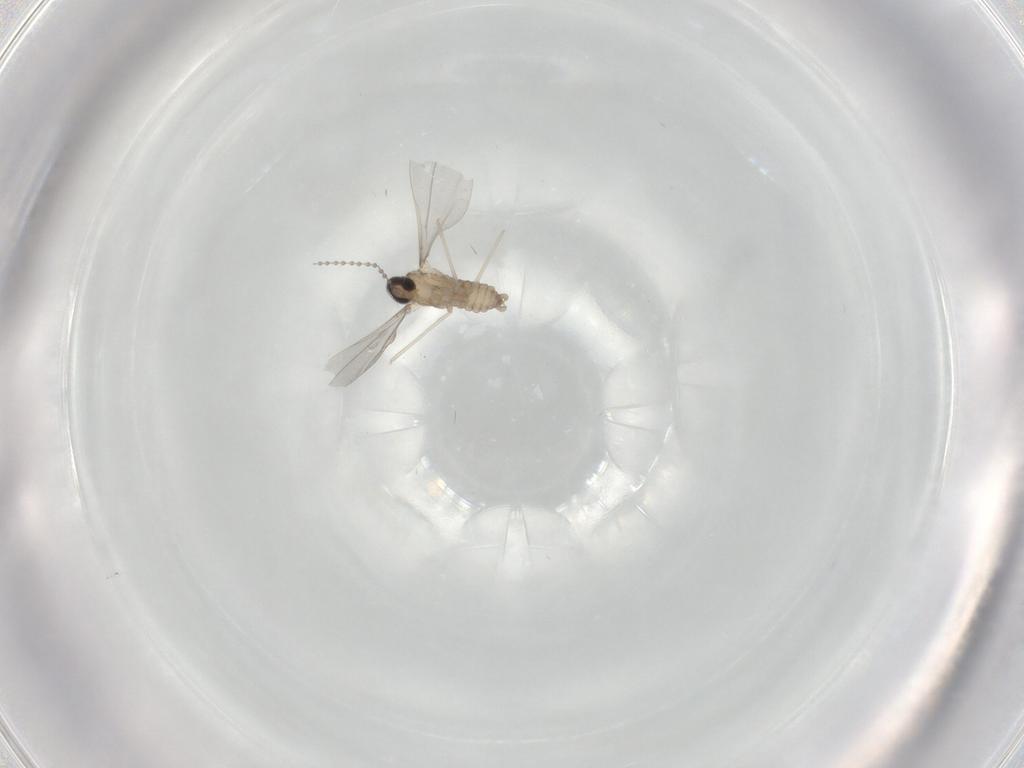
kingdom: Animalia
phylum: Arthropoda
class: Insecta
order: Diptera
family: Cecidomyiidae
